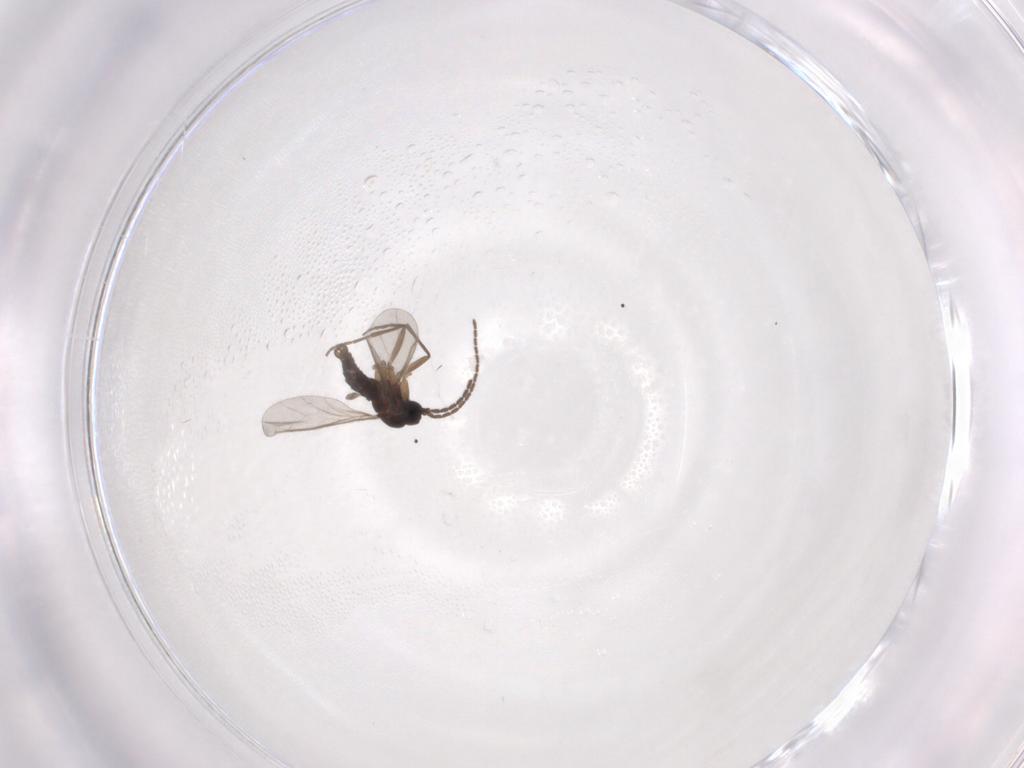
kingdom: Animalia
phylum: Arthropoda
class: Insecta
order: Diptera
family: Sciaridae
